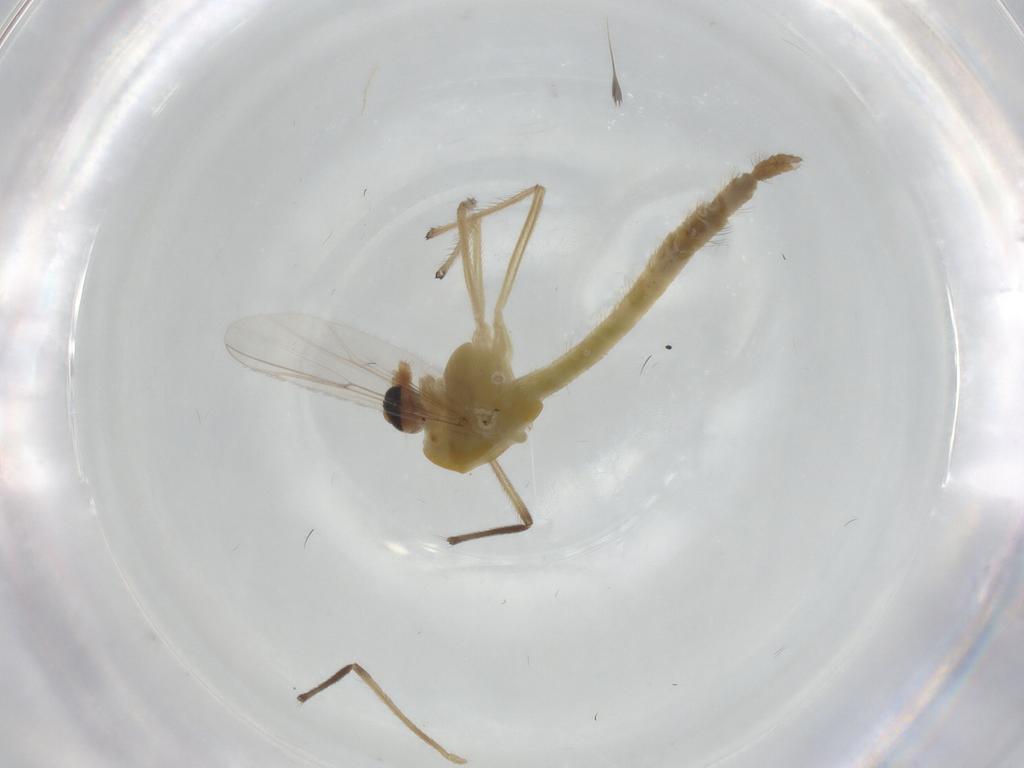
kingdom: Animalia
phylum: Arthropoda
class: Insecta
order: Diptera
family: Chironomidae
